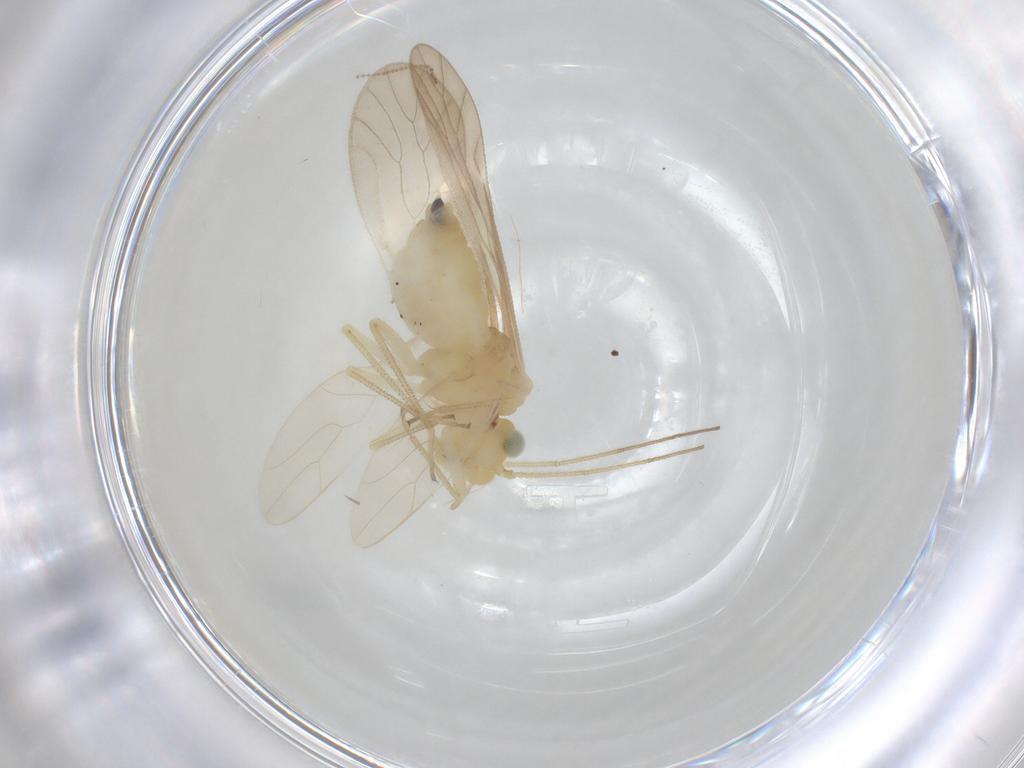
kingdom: Animalia
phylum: Arthropoda
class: Insecta
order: Psocodea
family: Caeciliusidae
